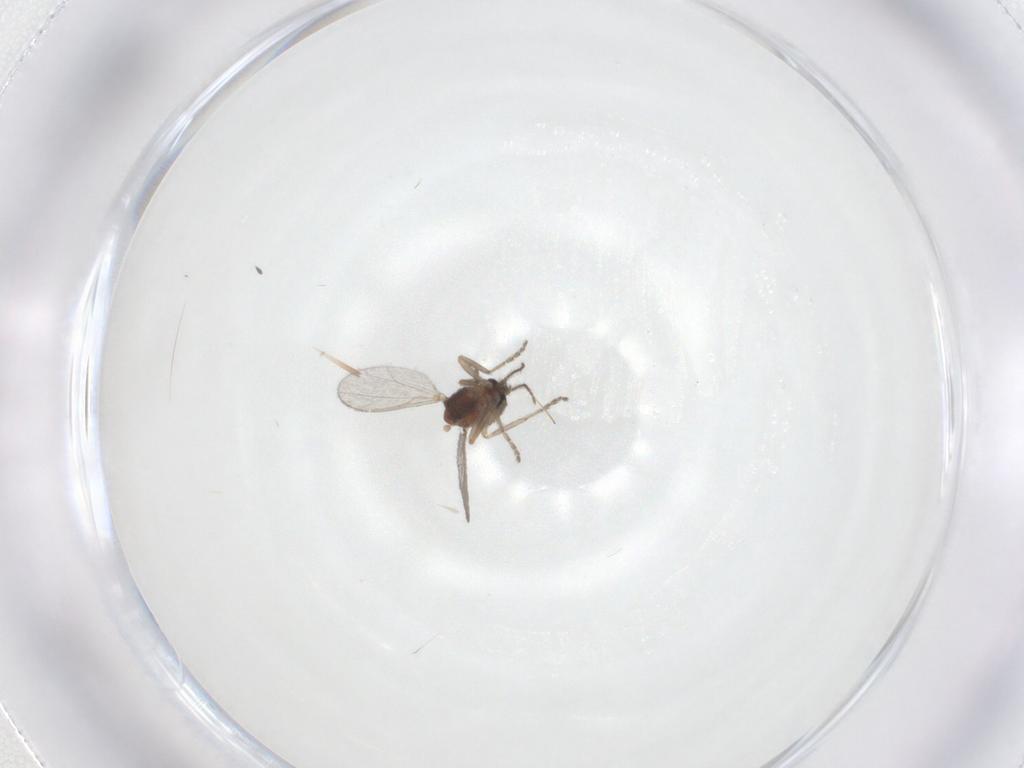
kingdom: Animalia
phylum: Arthropoda
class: Insecta
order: Diptera
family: Ceratopogonidae
